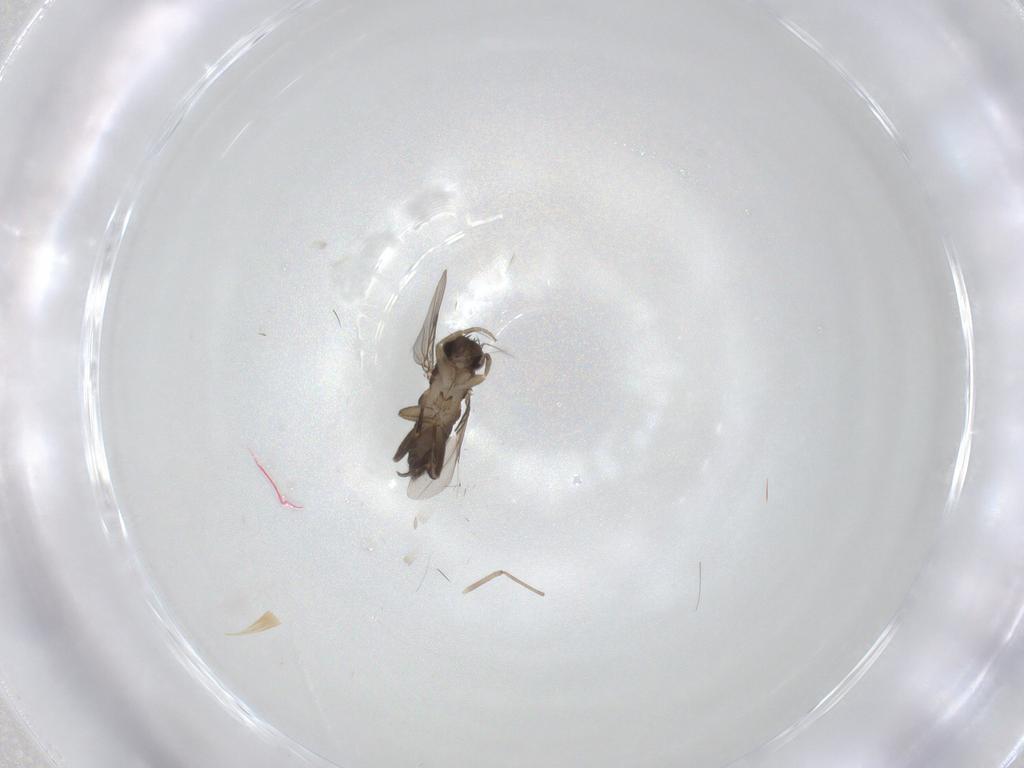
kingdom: Animalia
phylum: Arthropoda
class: Insecta
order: Diptera
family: Phoridae
